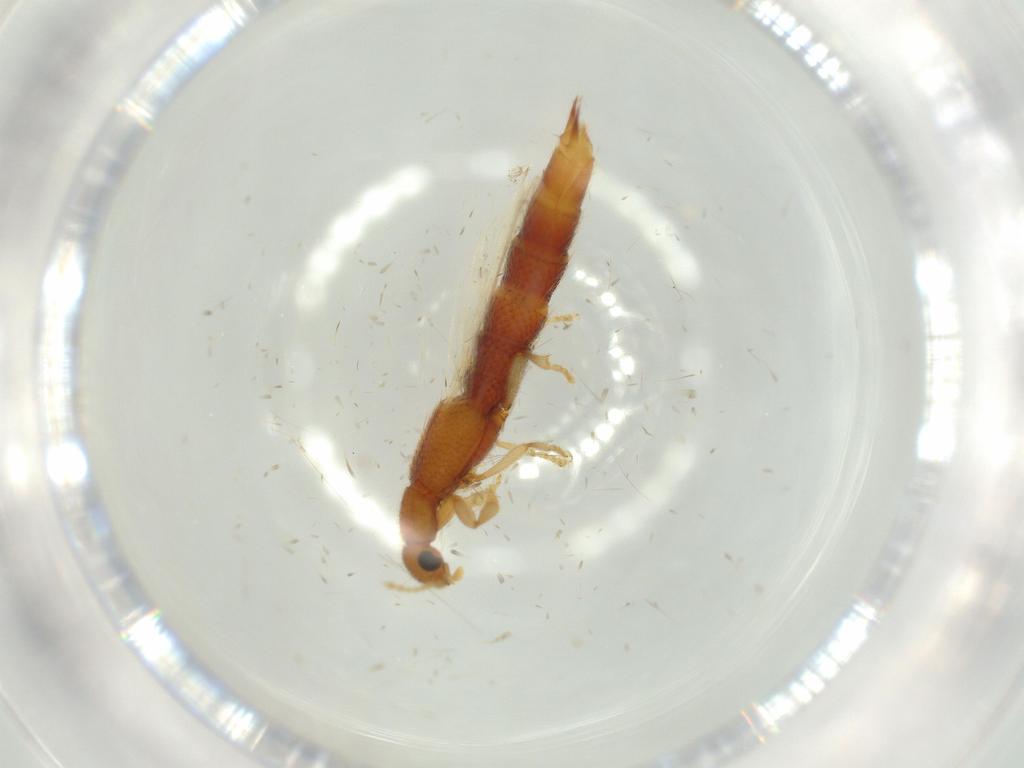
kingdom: Animalia
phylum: Arthropoda
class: Insecta
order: Coleoptera
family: Staphylinidae
